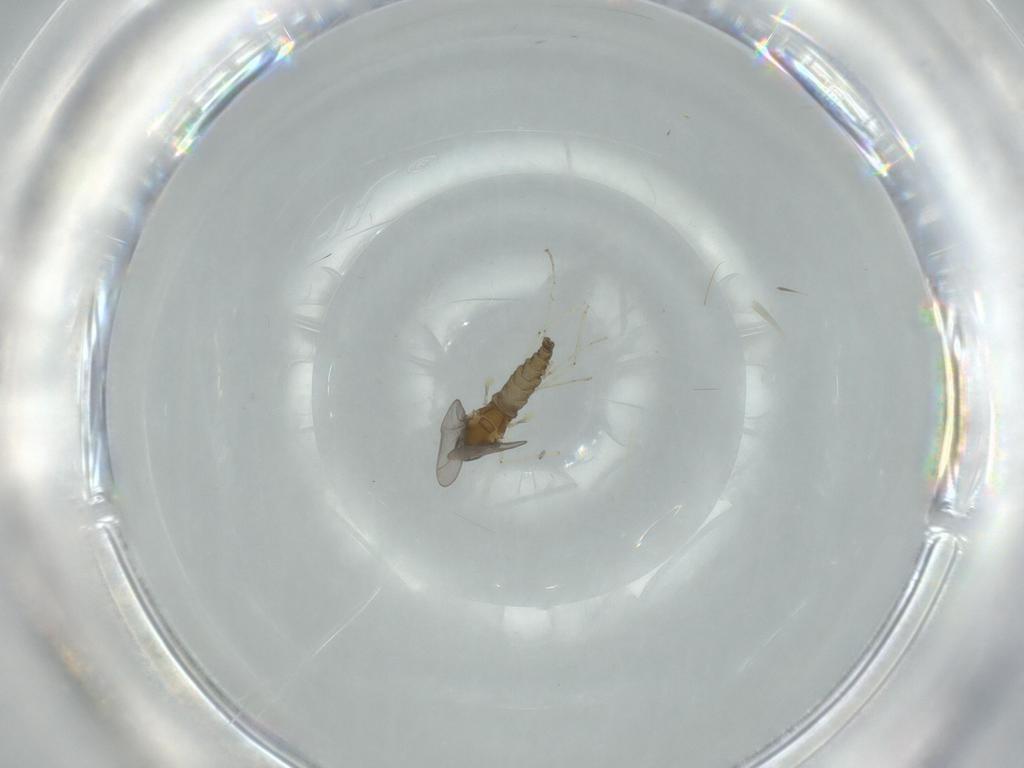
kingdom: Animalia
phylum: Arthropoda
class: Insecta
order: Diptera
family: Cecidomyiidae
